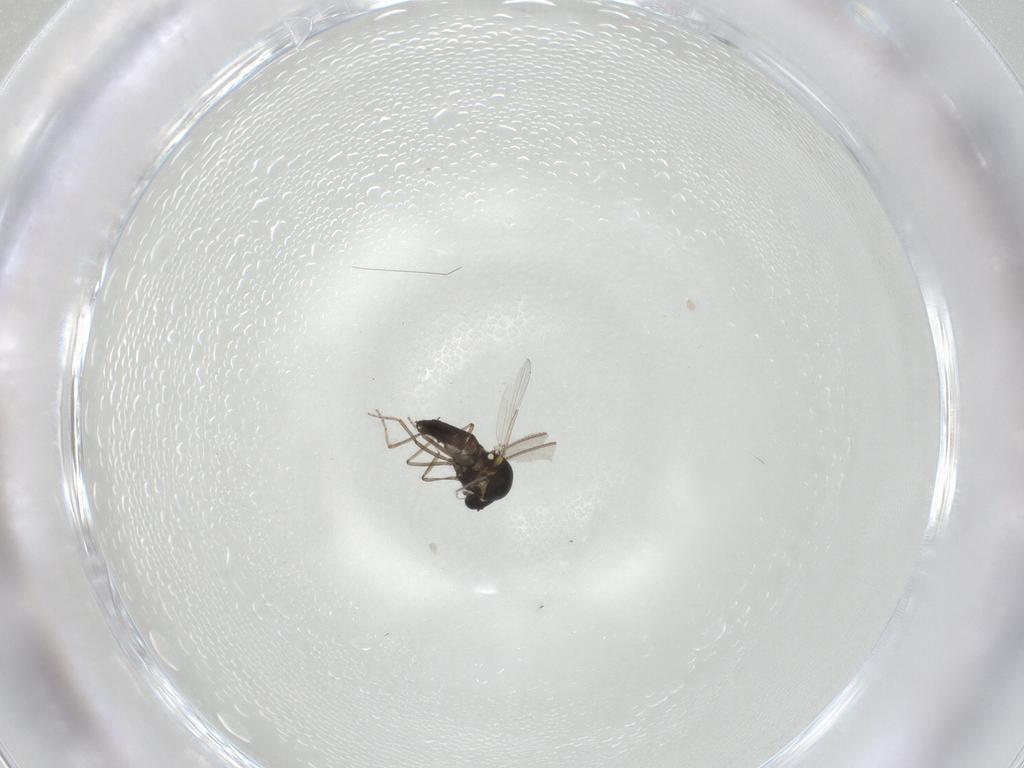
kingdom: Animalia
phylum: Arthropoda
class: Insecta
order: Diptera
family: Ceratopogonidae
